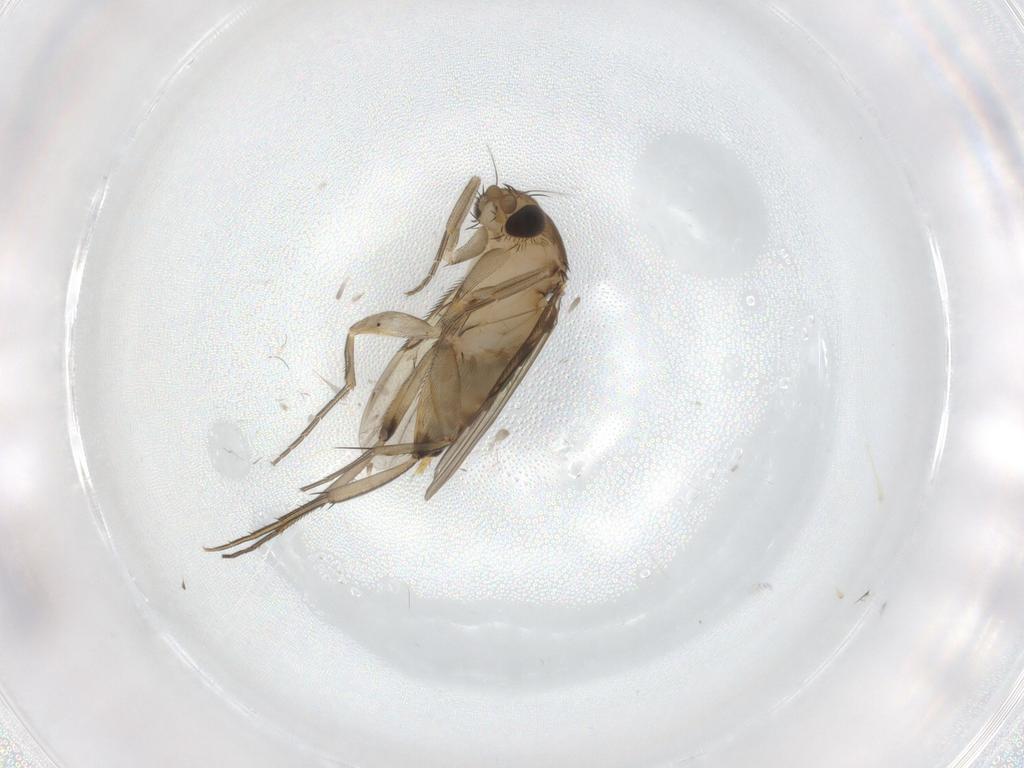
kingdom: Animalia
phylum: Arthropoda
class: Insecta
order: Diptera
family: Phoridae
